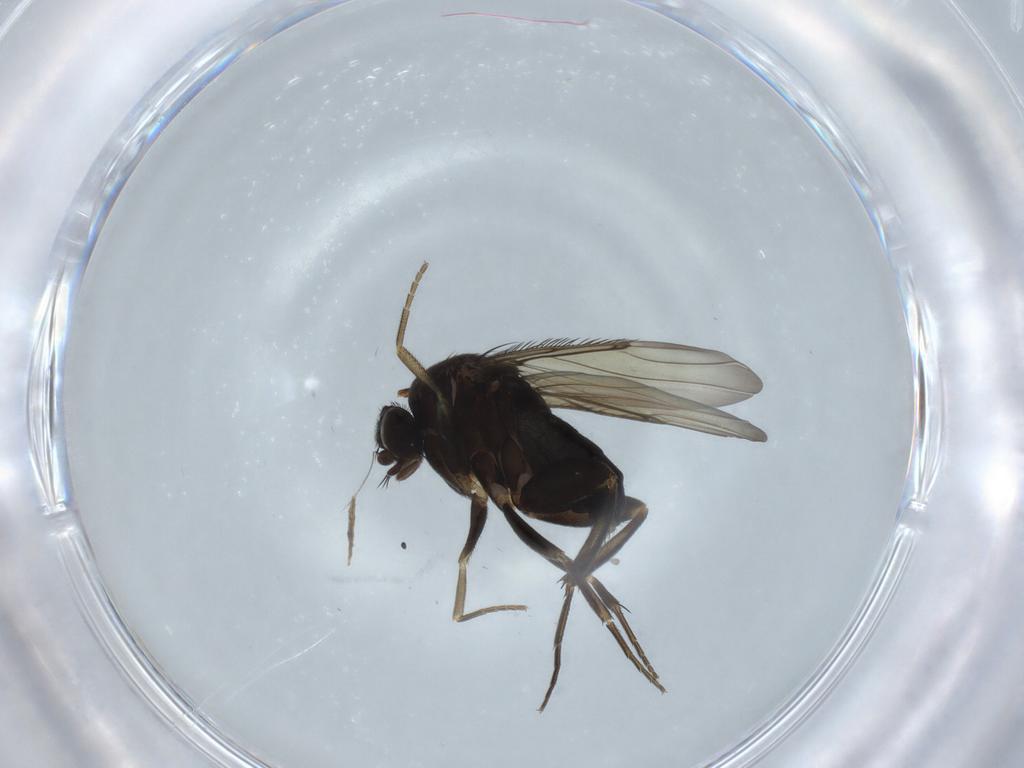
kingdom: Animalia
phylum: Arthropoda
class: Insecta
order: Diptera
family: Chironomidae
